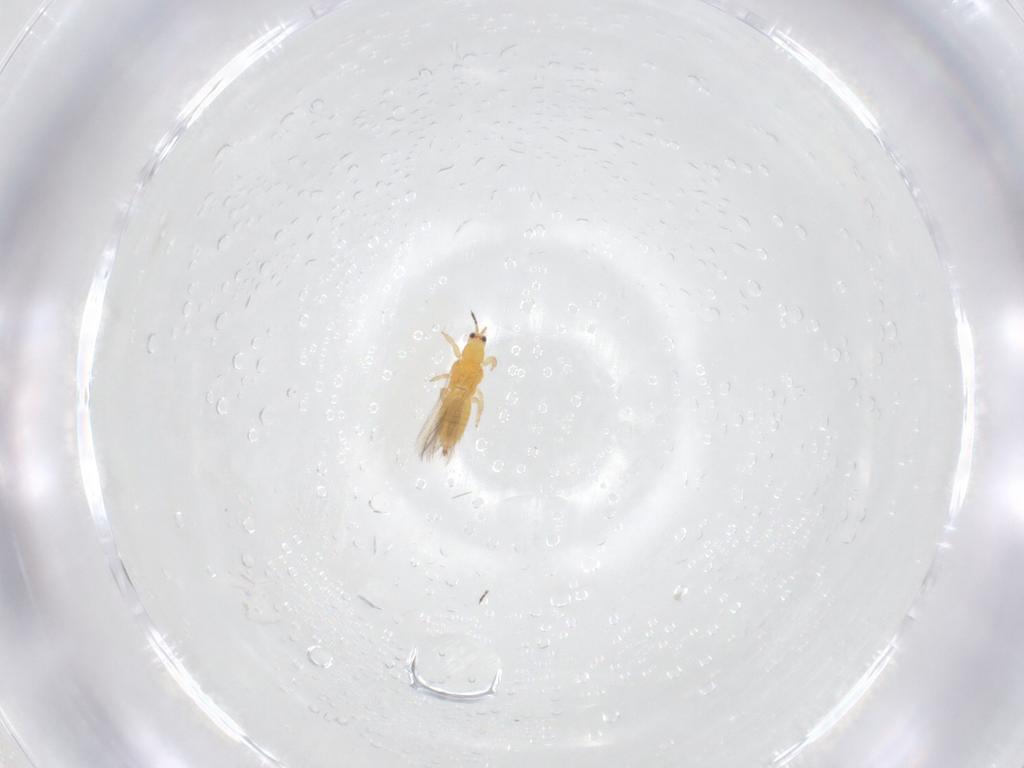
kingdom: Animalia
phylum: Arthropoda
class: Insecta
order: Thysanoptera
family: Thripidae
